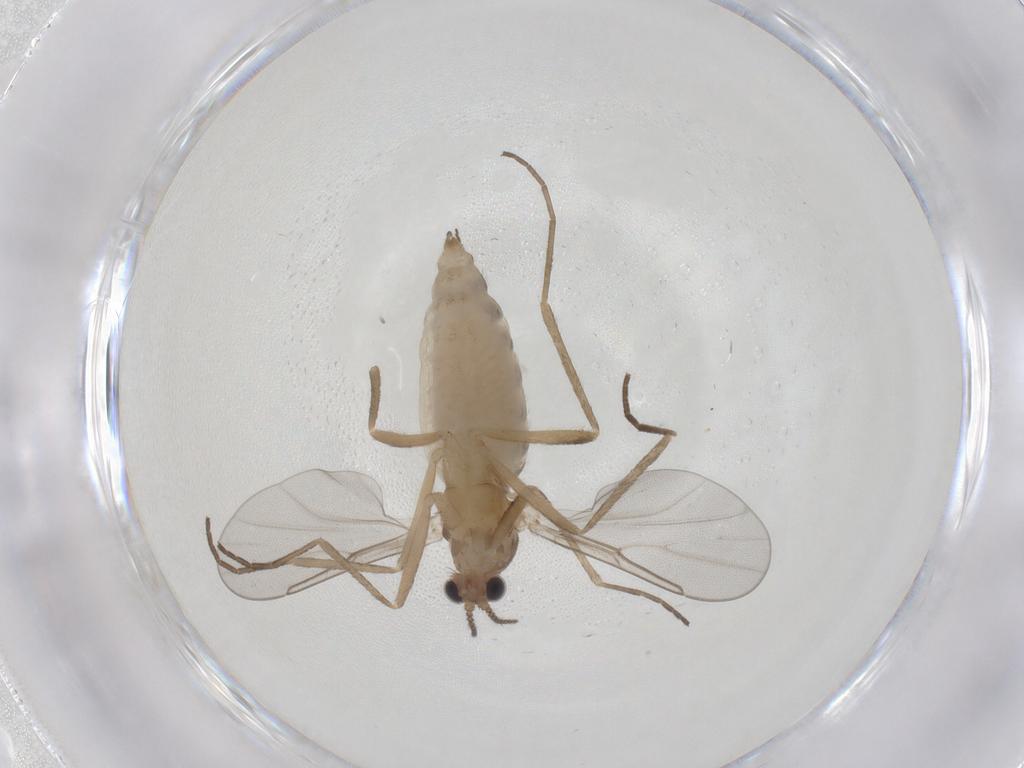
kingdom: Animalia
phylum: Arthropoda
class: Insecta
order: Diptera
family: Cecidomyiidae
